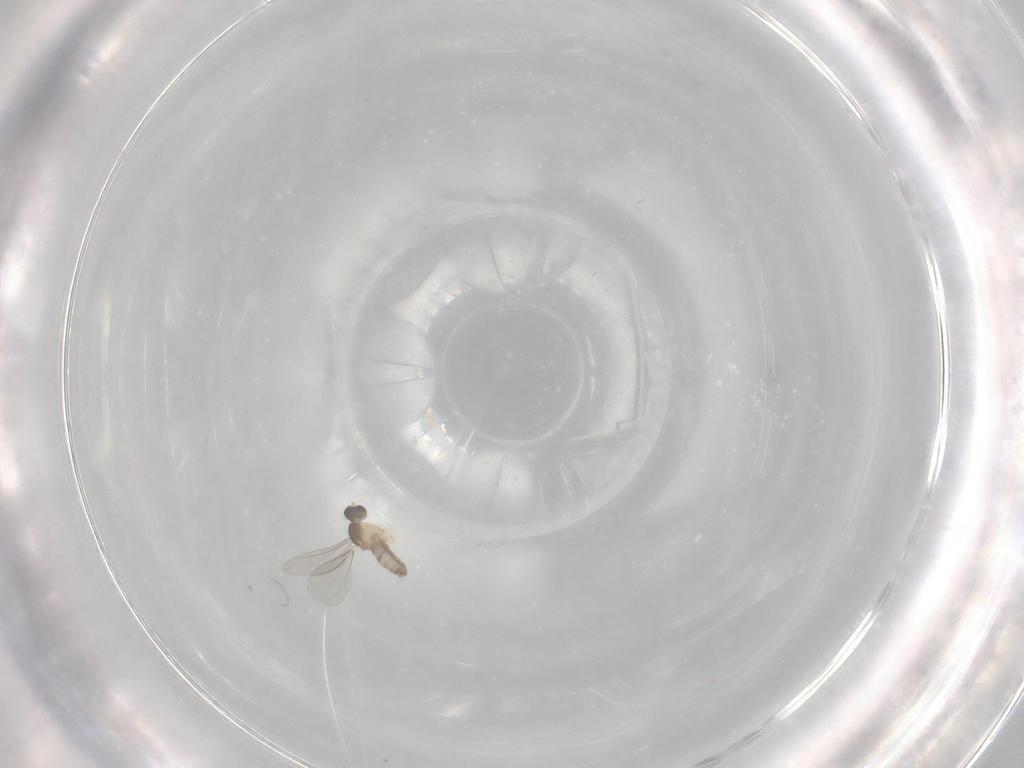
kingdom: Animalia
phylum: Arthropoda
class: Insecta
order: Diptera
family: Cecidomyiidae
